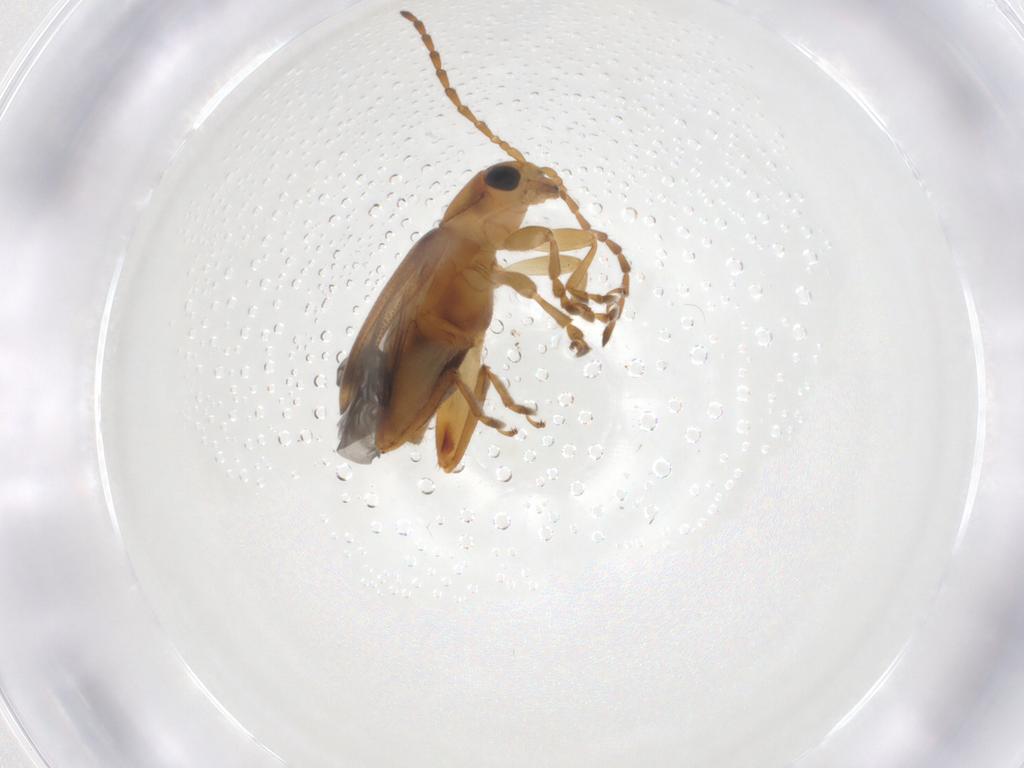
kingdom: Animalia
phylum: Arthropoda
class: Insecta
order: Coleoptera
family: Chrysomelidae
